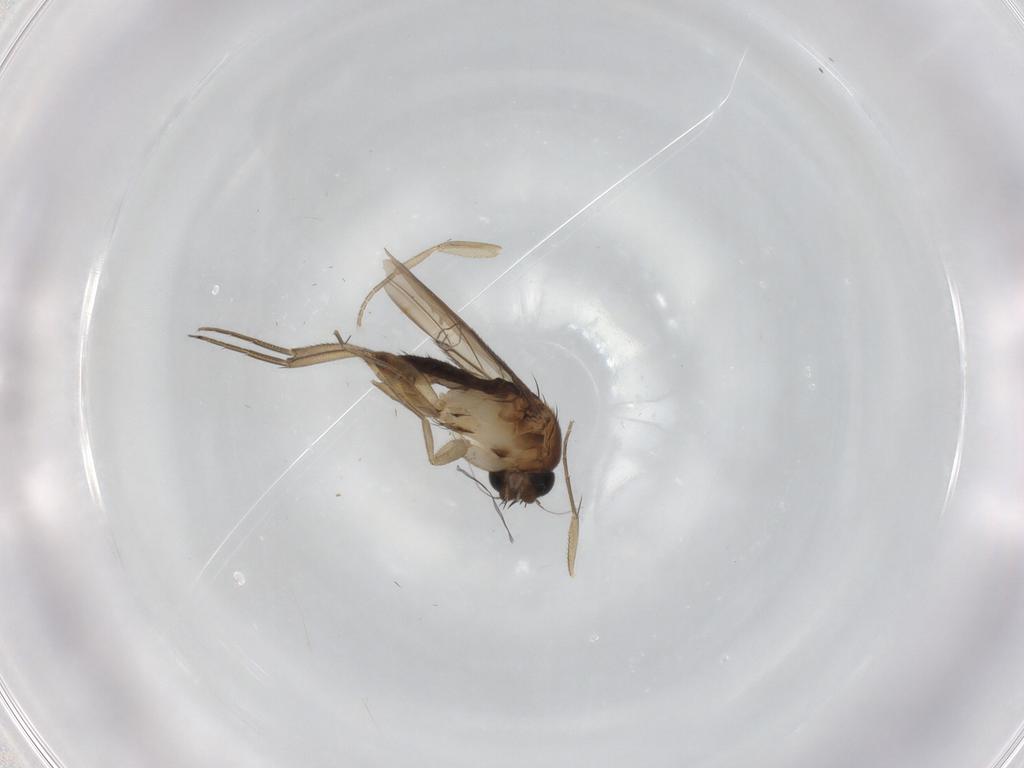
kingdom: Animalia
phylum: Arthropoda
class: Insecta
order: Diptera
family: Phoridae
